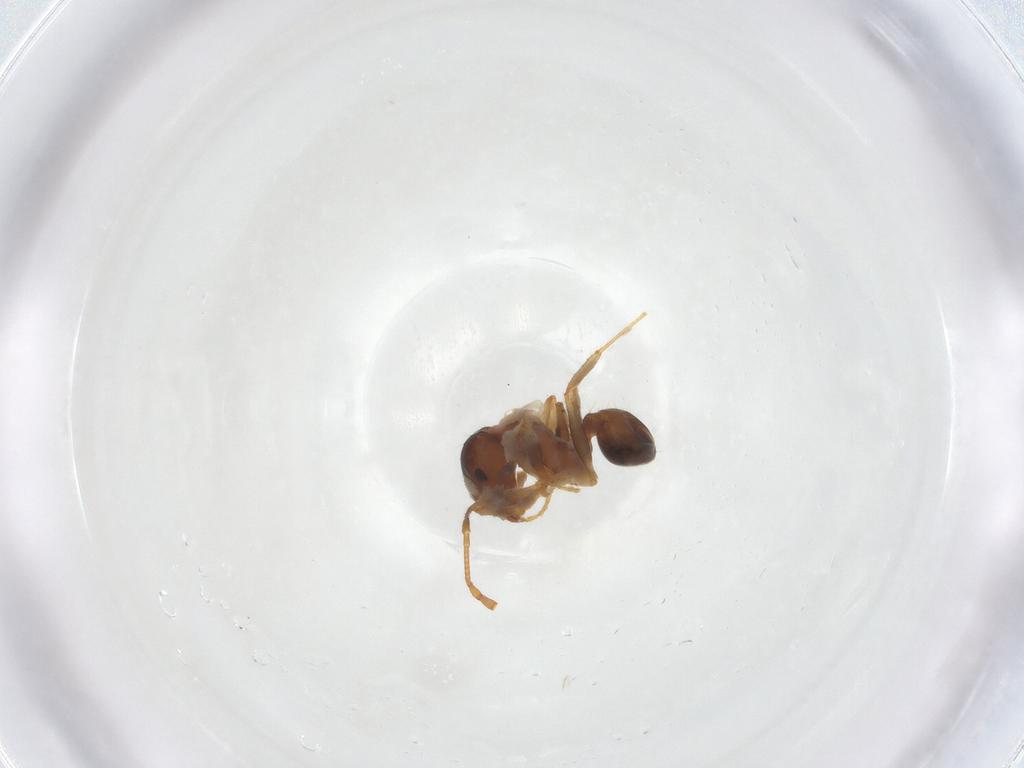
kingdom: Animalia
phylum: Arthropoda
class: Insecta
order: Hymenoptera
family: Formicidae
